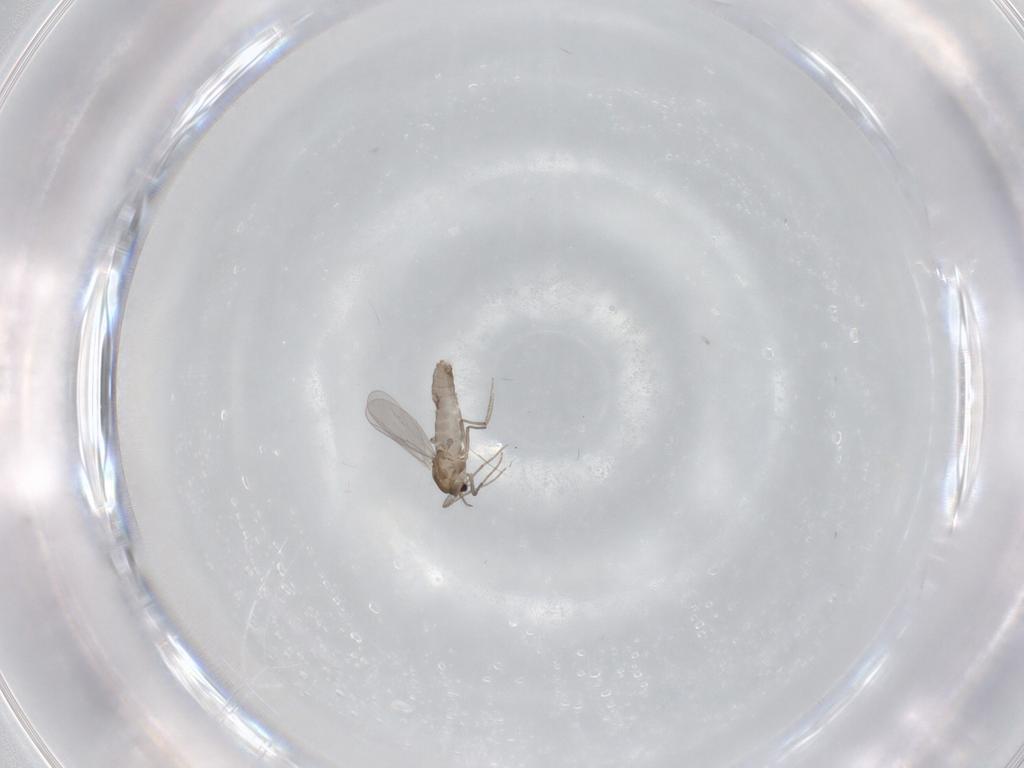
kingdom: Animalia
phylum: Arthropoda
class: Insecta
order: Diptera
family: Chironomidae
